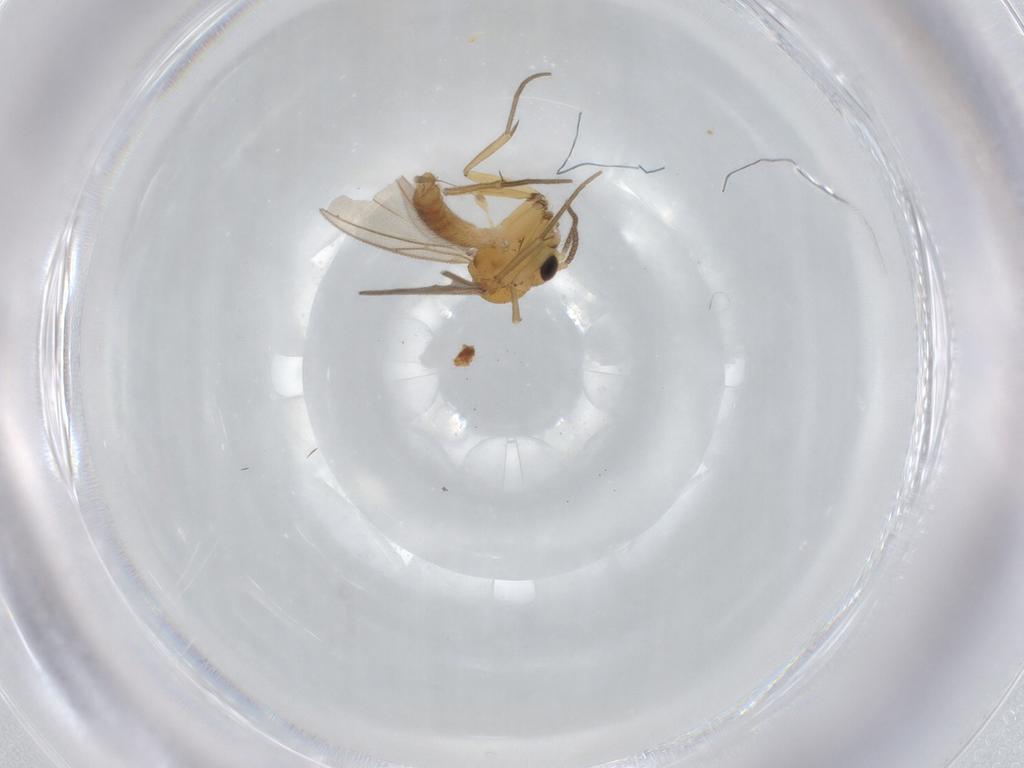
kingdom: Animalia
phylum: Arthropoda
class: Insecta
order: Diptera
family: Mycetophilidae
